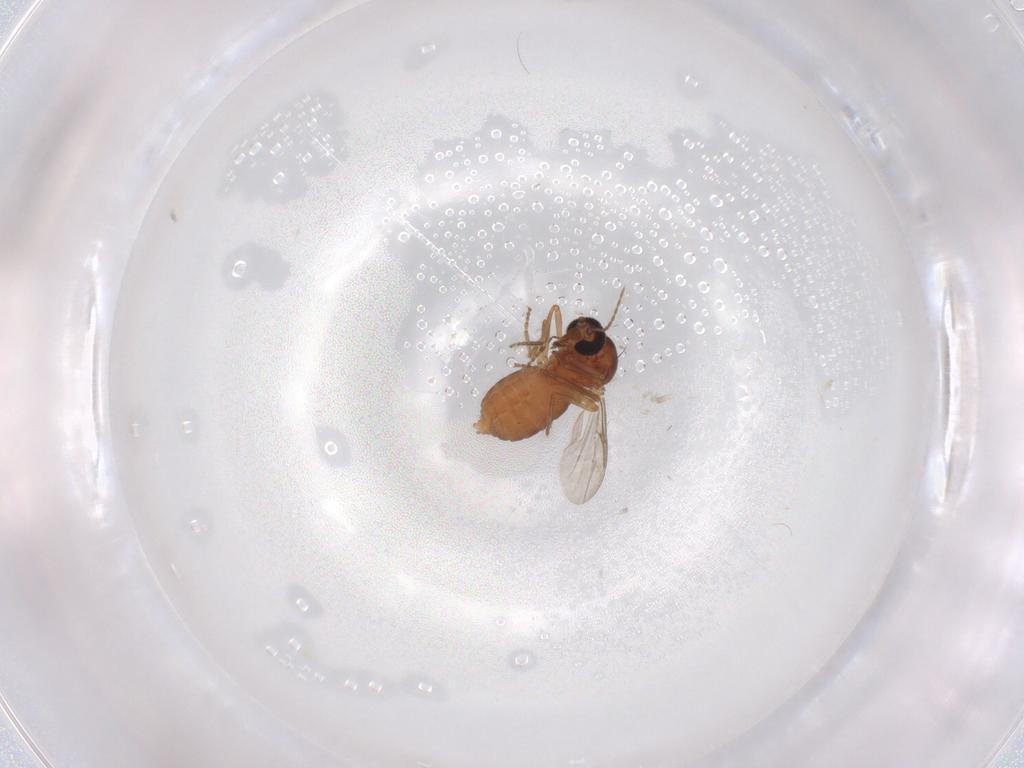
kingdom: Animalia
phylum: Arthropoda
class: Insecta
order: Diptera
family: Ceratopogonidae
